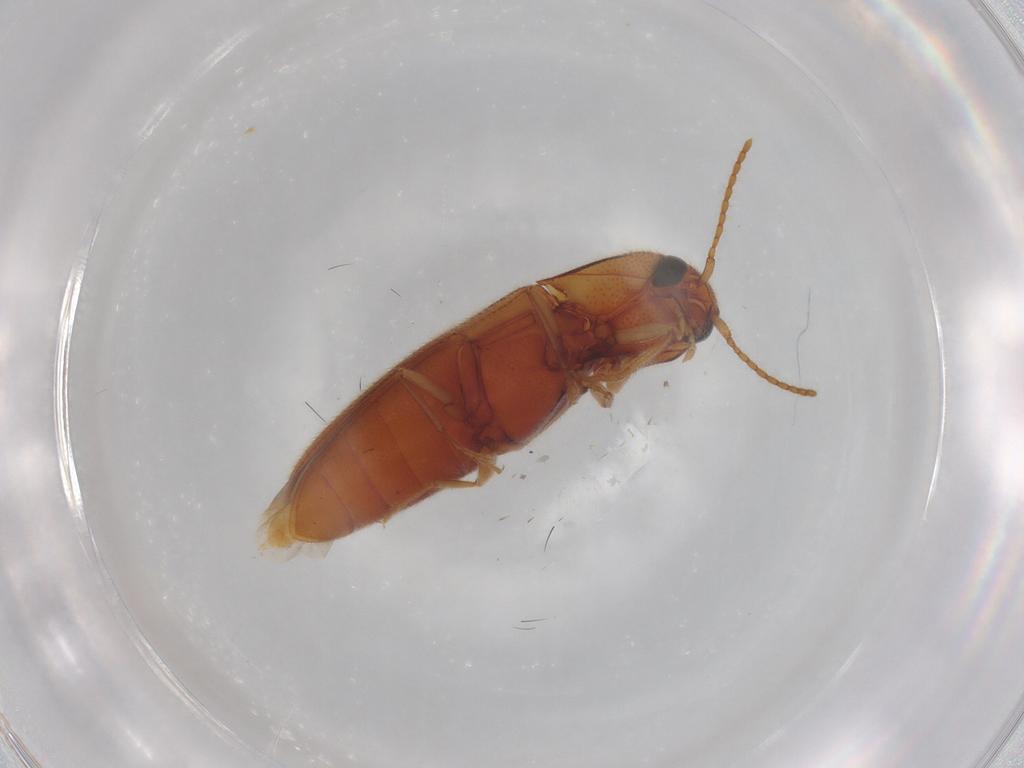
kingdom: Animalia
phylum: Arthropoda
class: Insecta
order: Coleoptera
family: Elateridae
